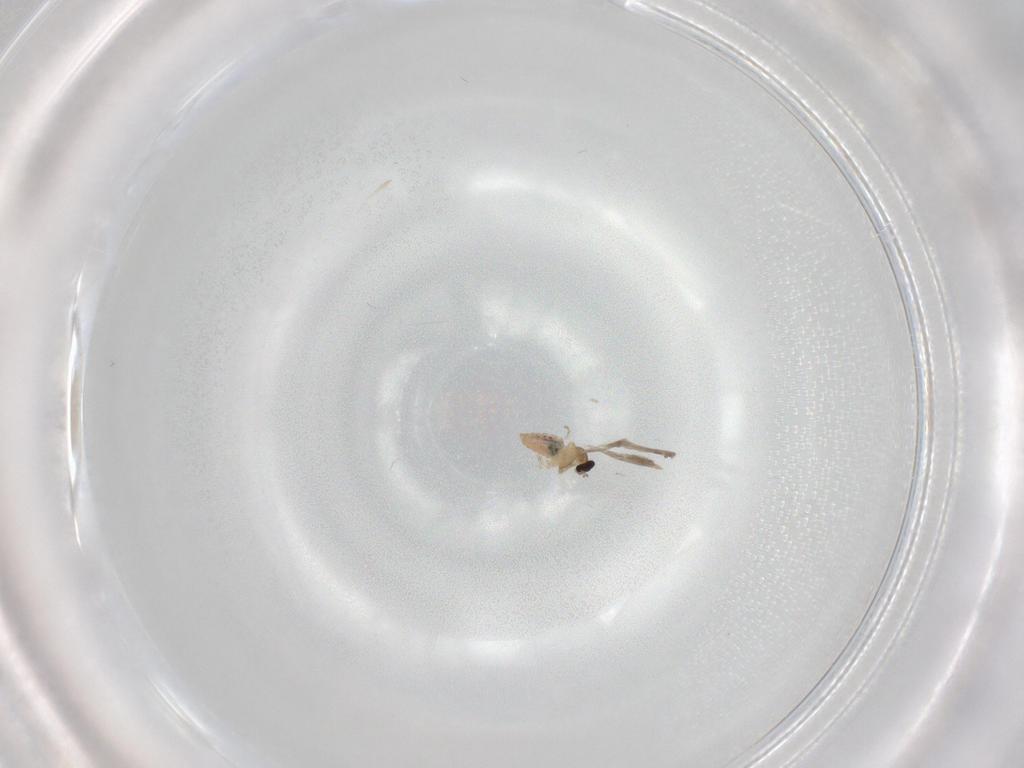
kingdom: Animalia
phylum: Arthropoda
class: Insecta
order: Diptera
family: Cecidomyiidae
